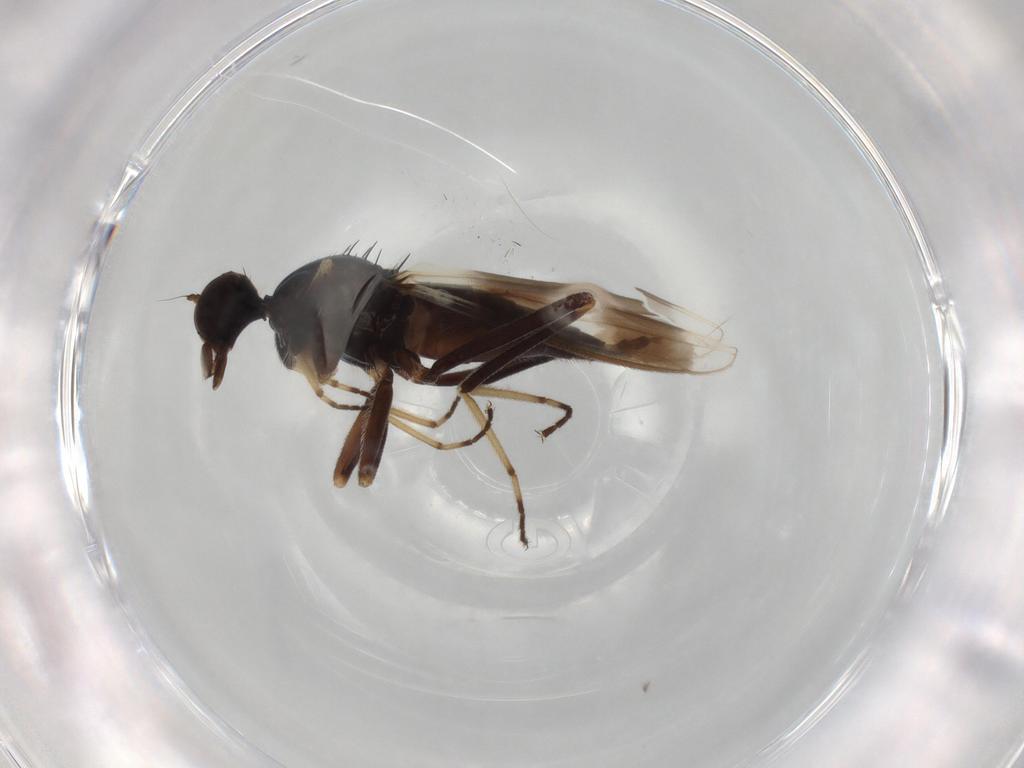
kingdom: Animalia
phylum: Arthropoda
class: Insecta
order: Diptera
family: Hybotidae
